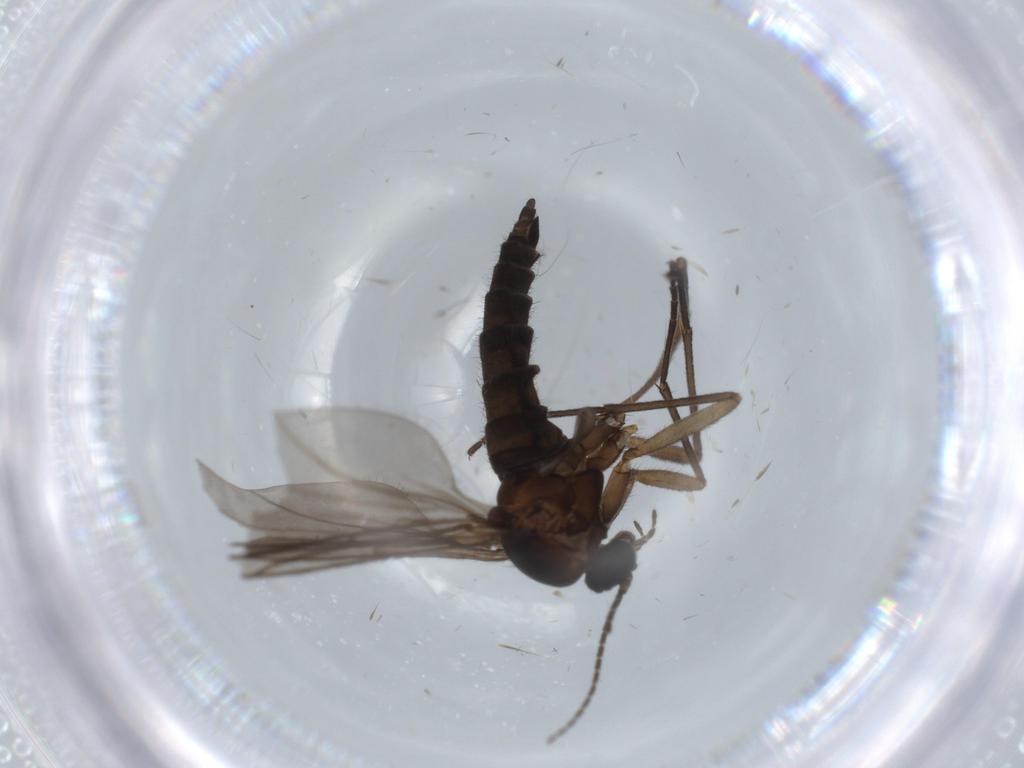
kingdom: Animalia
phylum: Arthropoda
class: Insecta
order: Diptera
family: Sciaridae
